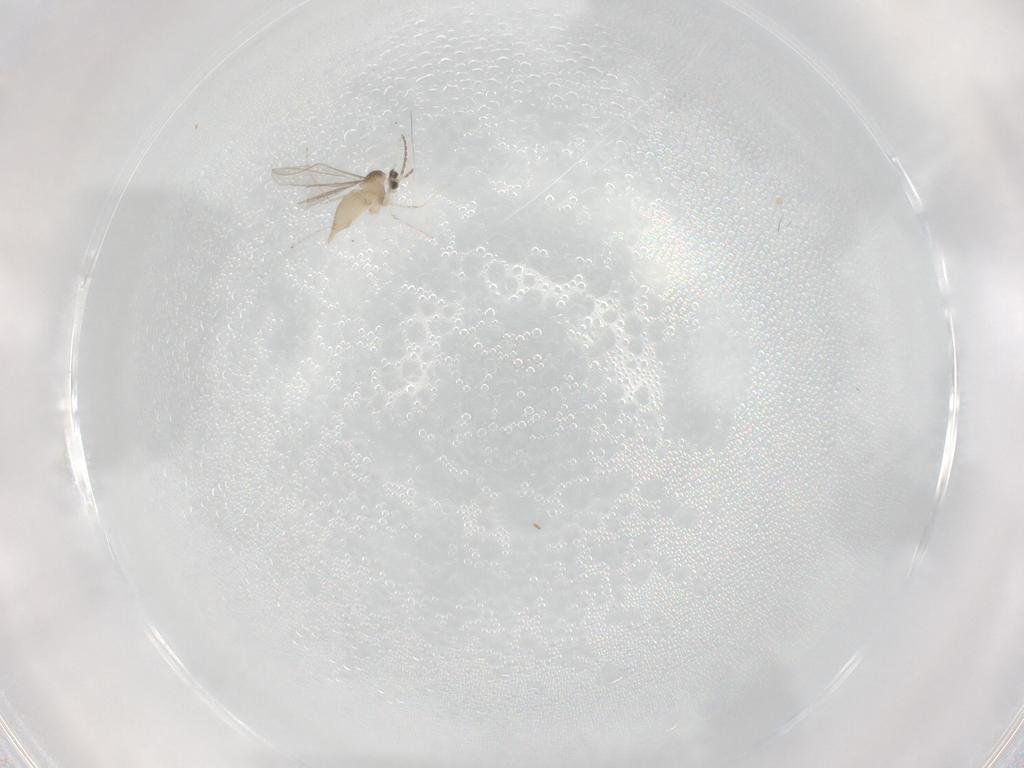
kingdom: Animalia
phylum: Arthropoda
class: Insecta
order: Diptera
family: Cecidomyiidae
